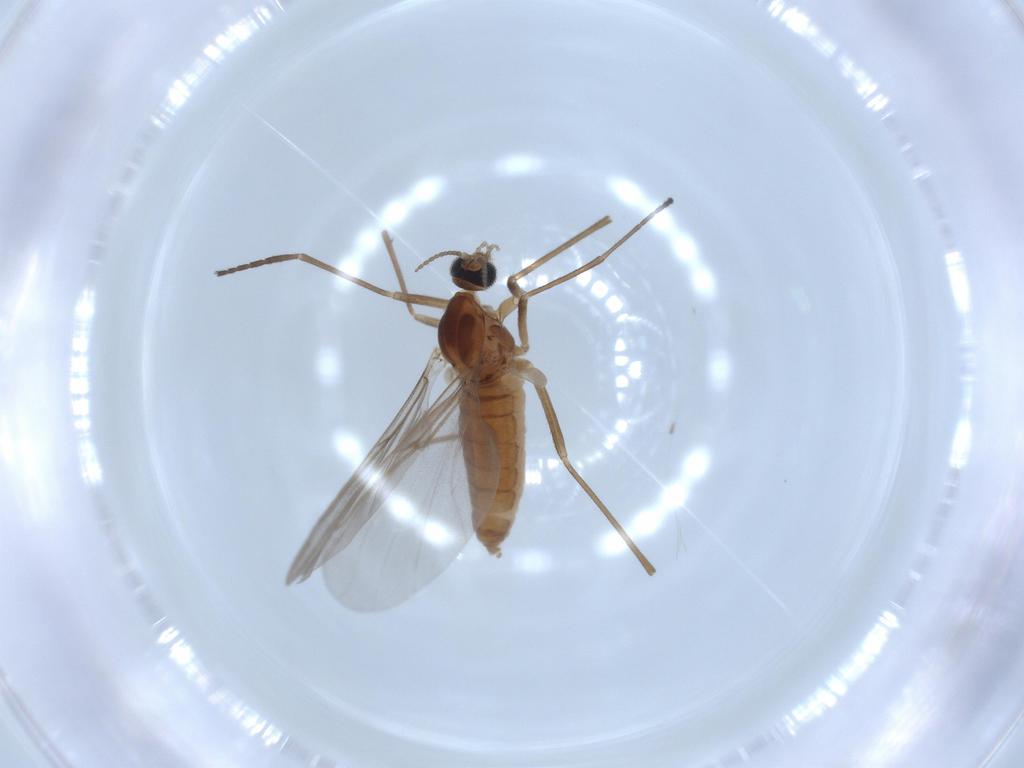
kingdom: Animalia
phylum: Arthropoda
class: Insecta
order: Diptera
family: Cecidomyiidae
